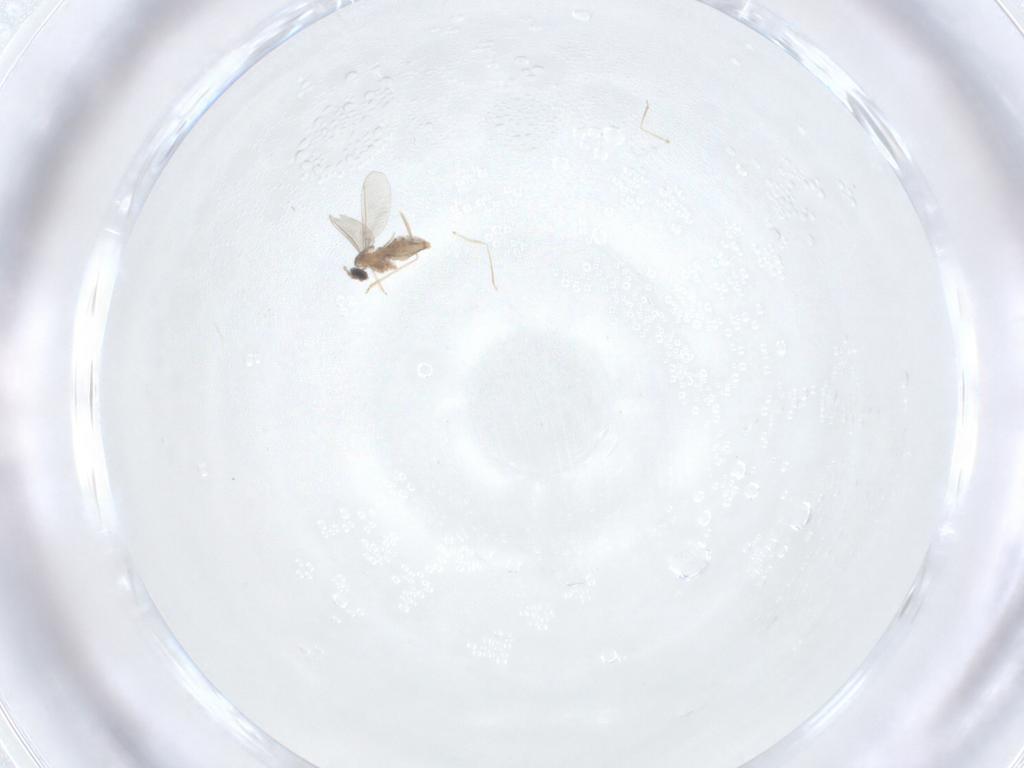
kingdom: Animalia
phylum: Arthropoda
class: Insecta
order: Diptera
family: Cecidomyiidae
